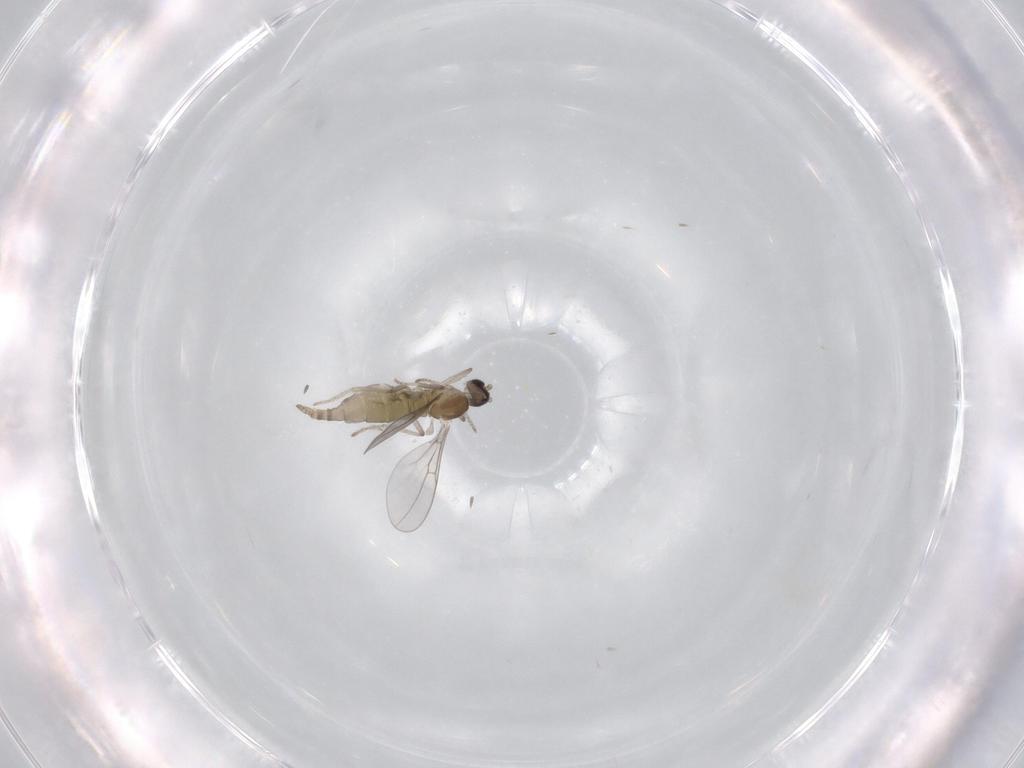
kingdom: Animalia
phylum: Arthropoda
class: Insecta
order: Diptera
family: Cecidomyiidae
